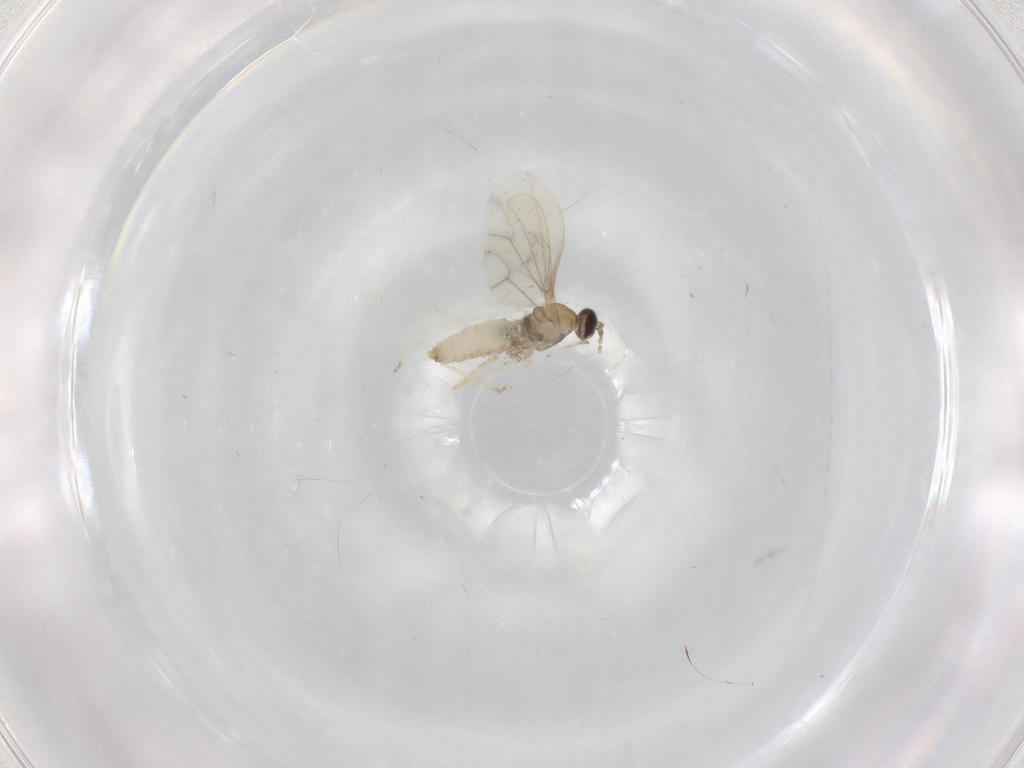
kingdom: Animalia
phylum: Arthropoda
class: Insecta
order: Diptera
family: Cecidomyiidae
